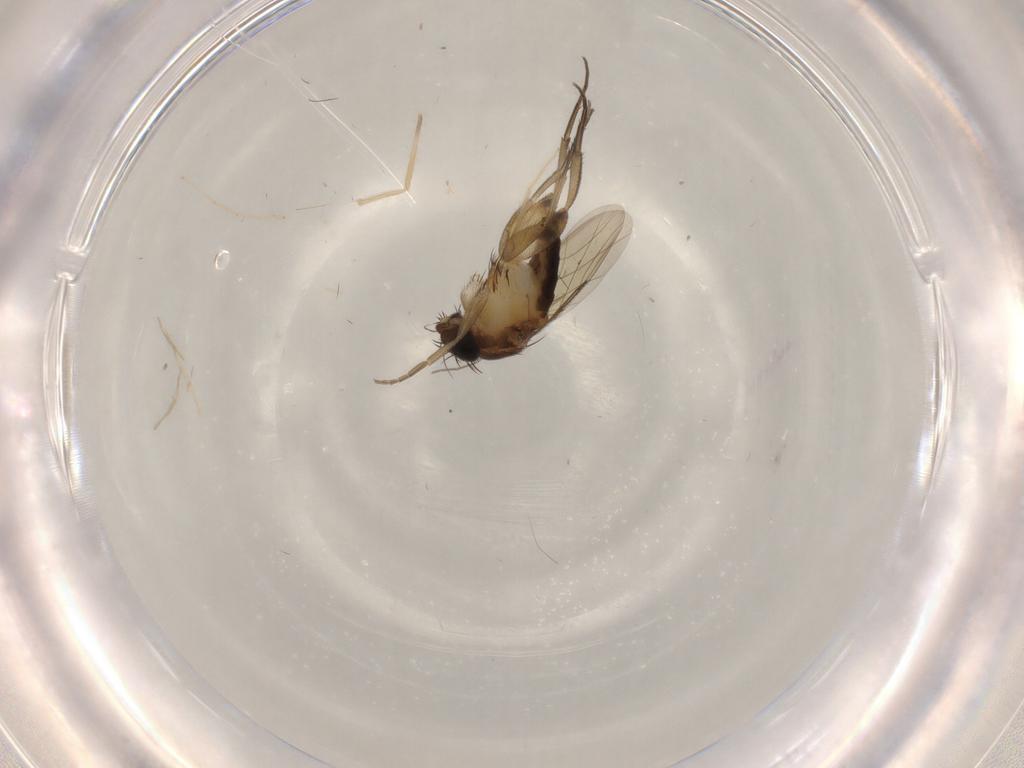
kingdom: Animalia
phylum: Arthropoda
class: Insecta
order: Diptera
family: Phoridae
